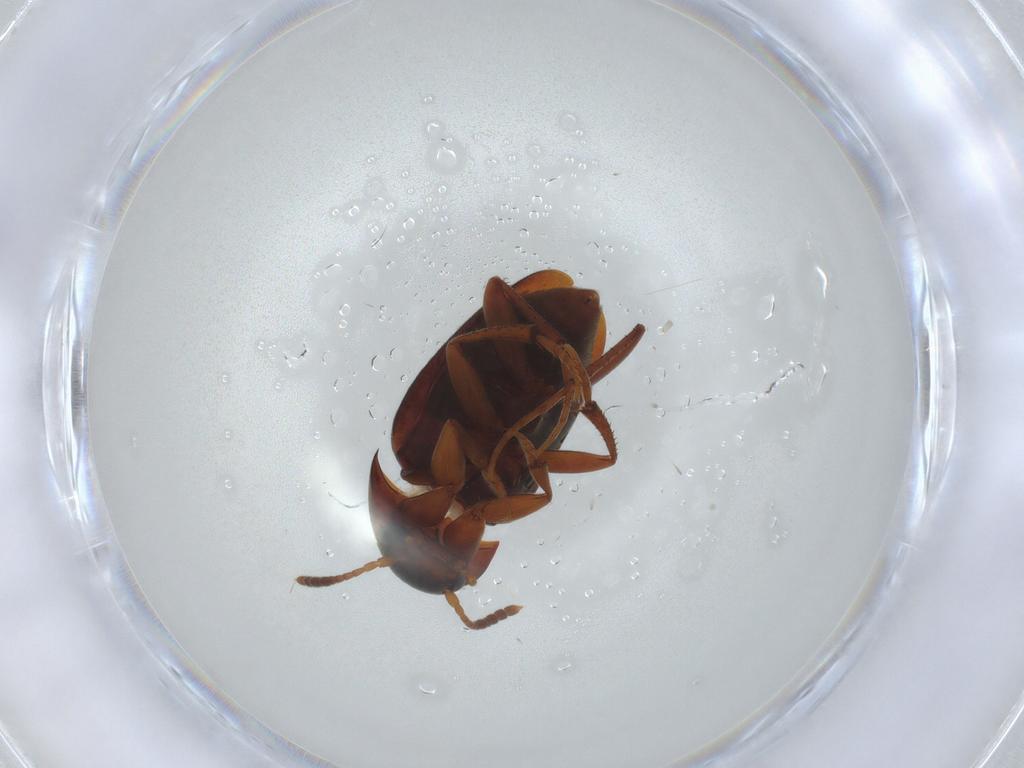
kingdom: Animalia
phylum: Arthropoda
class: Insecta
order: Coleoptera
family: Leiodidae
